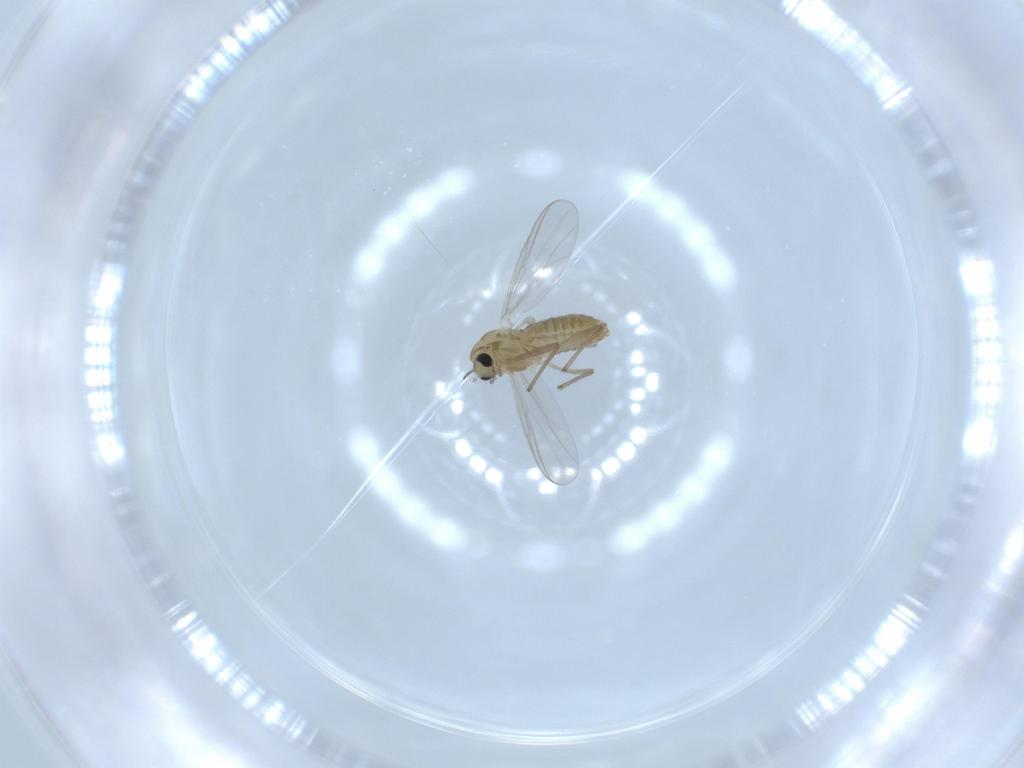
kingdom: Animalia
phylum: Arthropoda
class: Insecta
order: Diptera
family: Chironomidae
